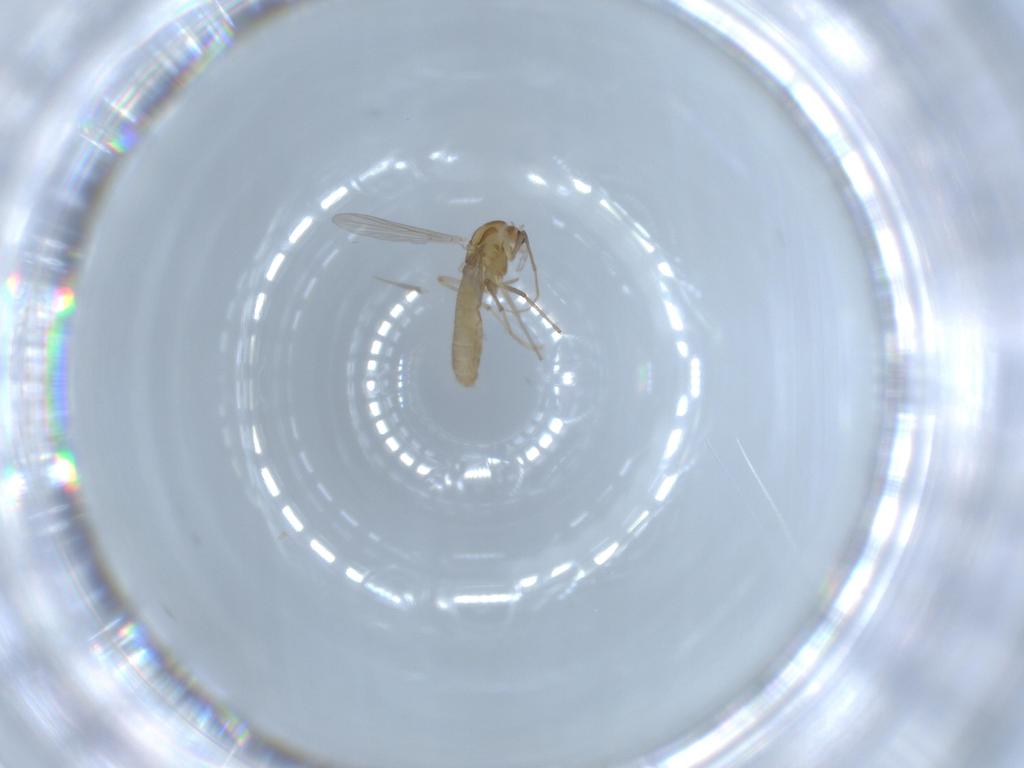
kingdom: Animalia
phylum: Arthropoda
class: Insecta
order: Diptera
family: Chironomidae
